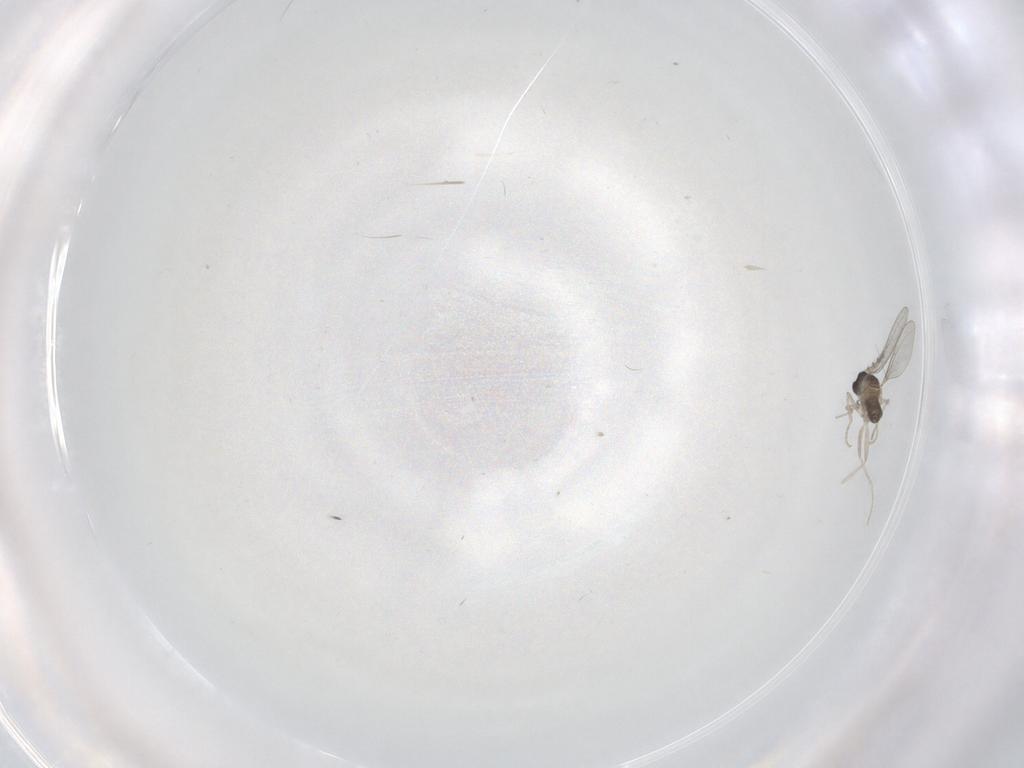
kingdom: Animalia
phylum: Arthropoda
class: Insecta
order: Diptera
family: Cecidomyiidae
